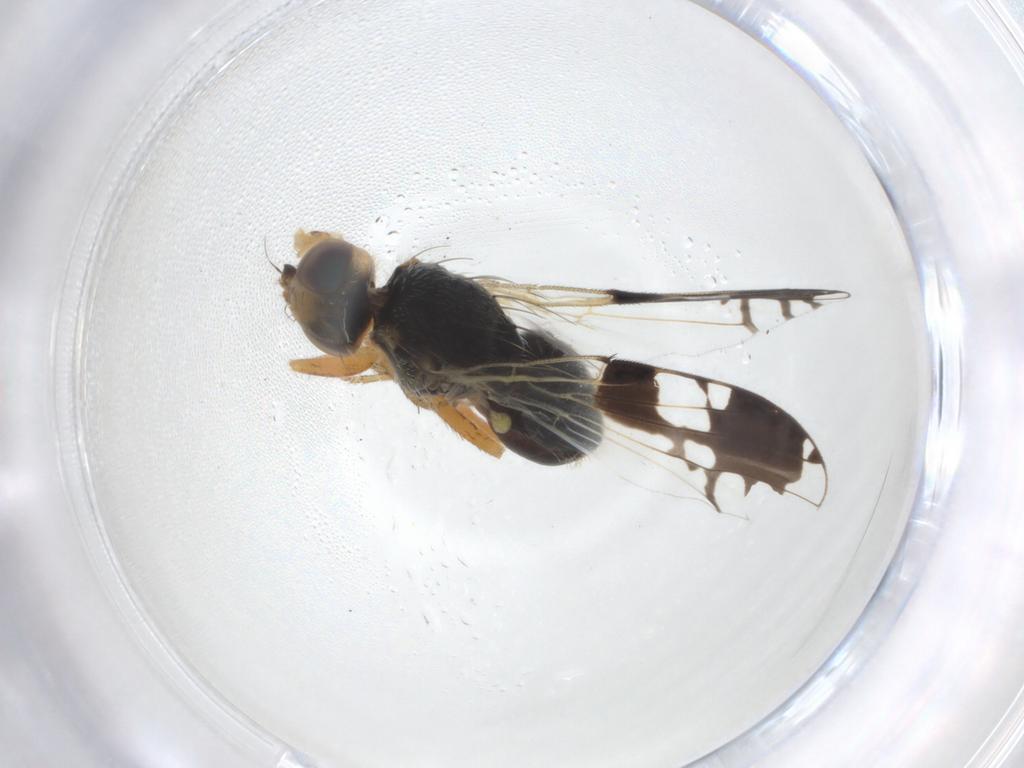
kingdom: Animalia
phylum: Arthropoda
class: Insecta
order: Diptera
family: Tephritidae
